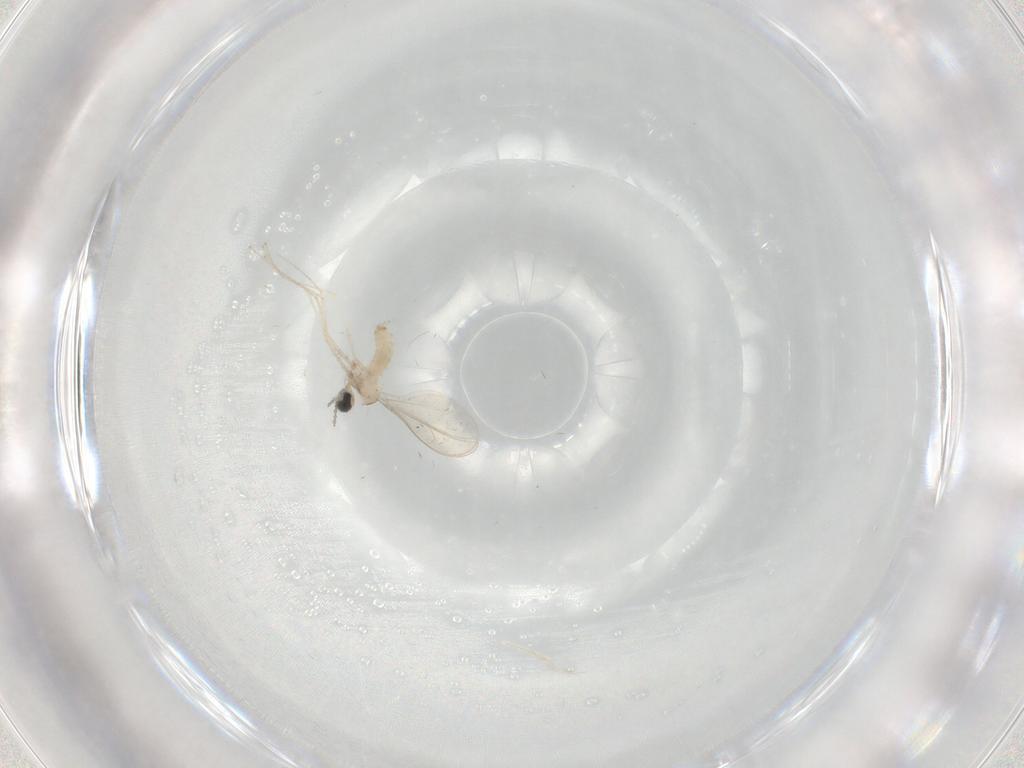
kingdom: Animalia
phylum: Arthropoda
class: Insecta
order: Diptera
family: Cecidomyiidae
